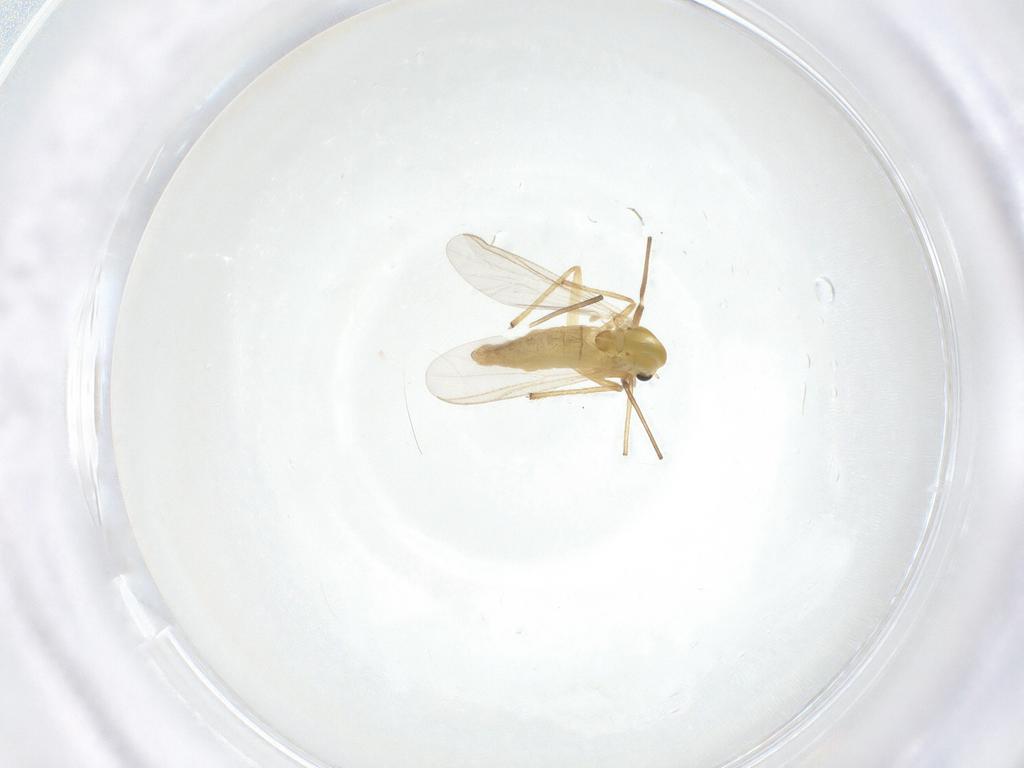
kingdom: Animalia
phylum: Arthropoda
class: Insecta
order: Diptera
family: Chironomidae
